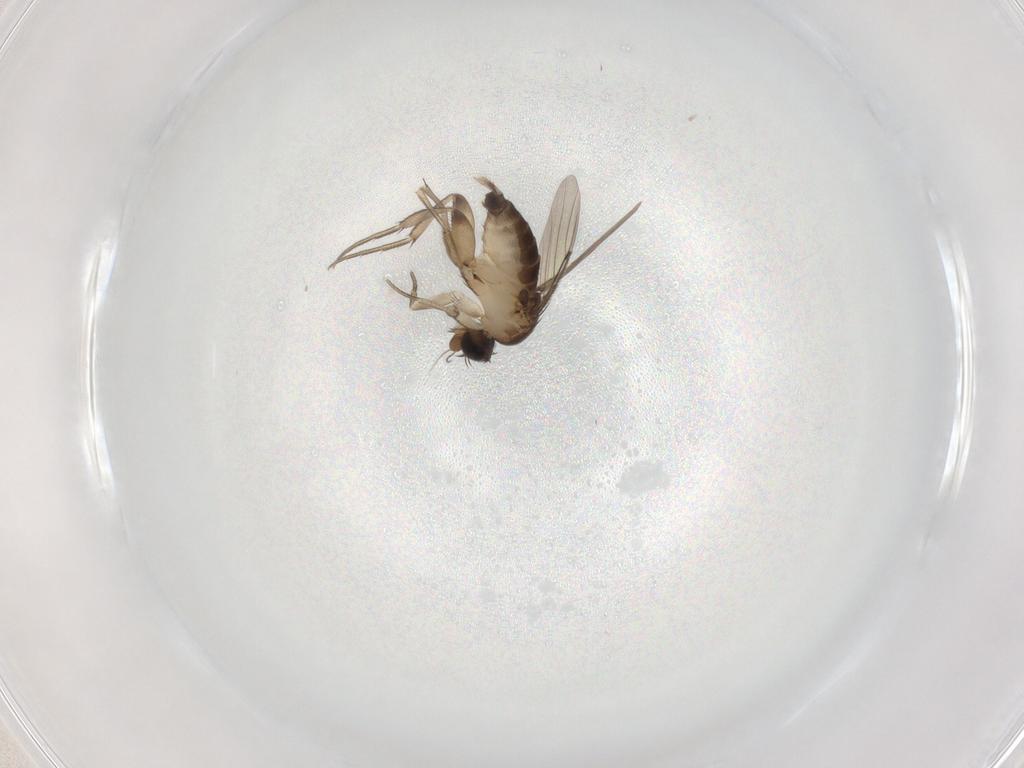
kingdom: Animalia
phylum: Arthropoda
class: Insecta
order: Diptera
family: Phoridae
